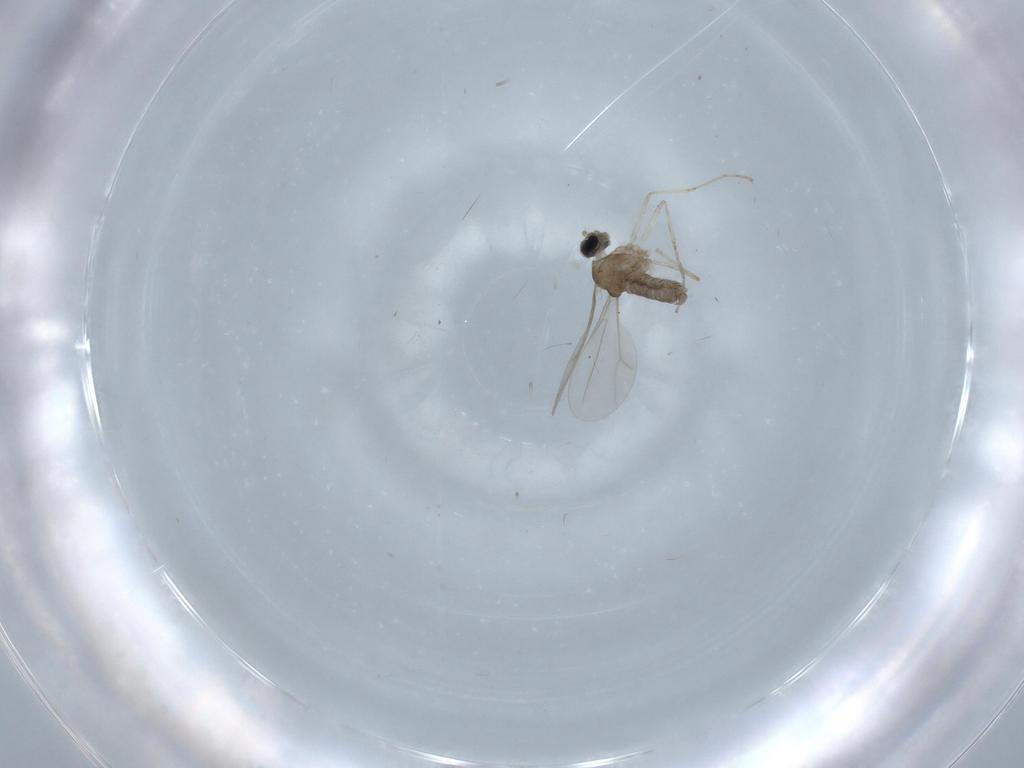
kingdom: Animalia
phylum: Arthropoda
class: Insecta
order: Diptera
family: Cecidomyiidae
